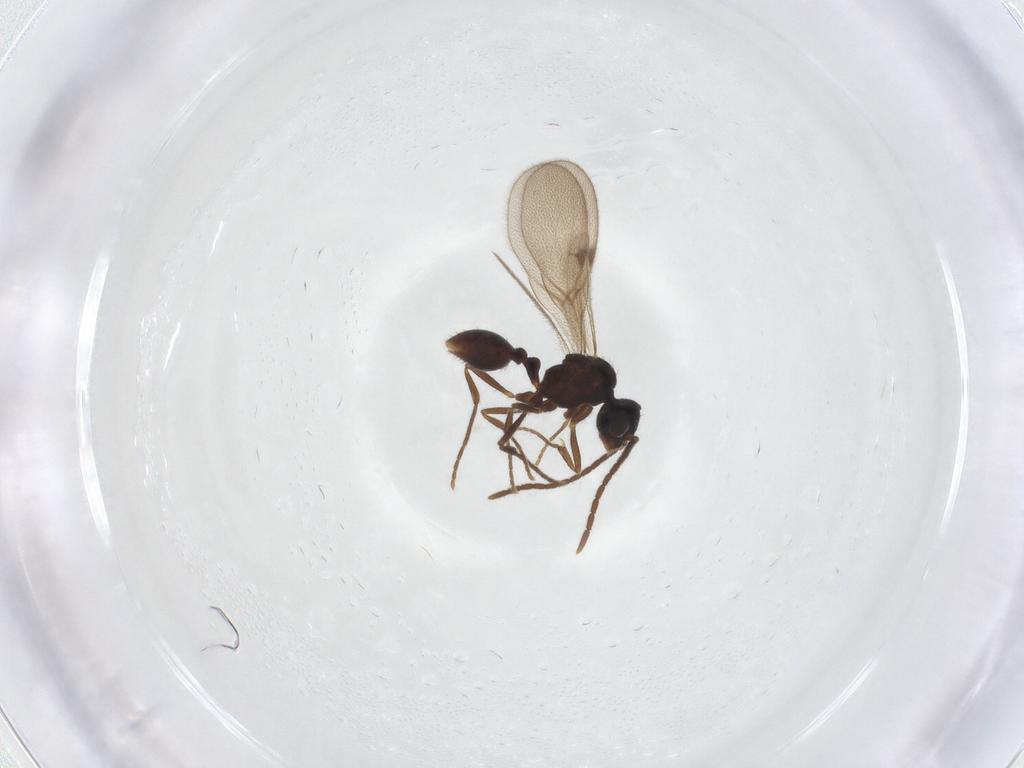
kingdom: Animalia
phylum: Arthropoda
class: Insecta
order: Hymenoptera
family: Formicidae
